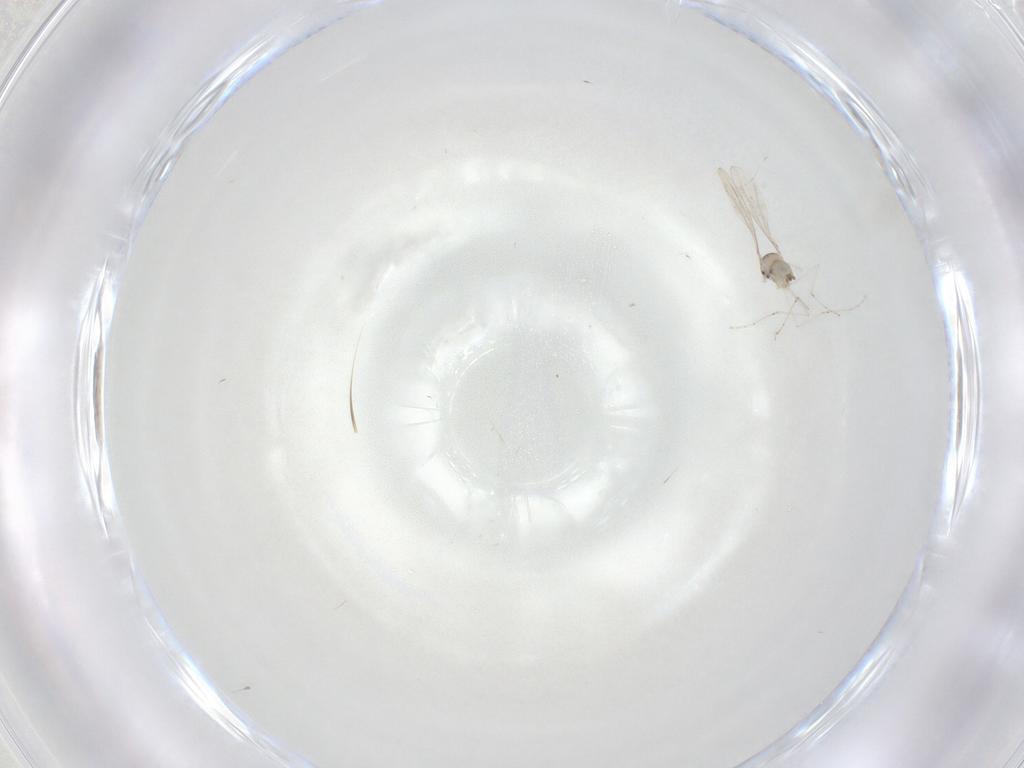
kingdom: Animalia
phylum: Arthropoda
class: Insecta
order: Diptera
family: Cecidomyiidae
